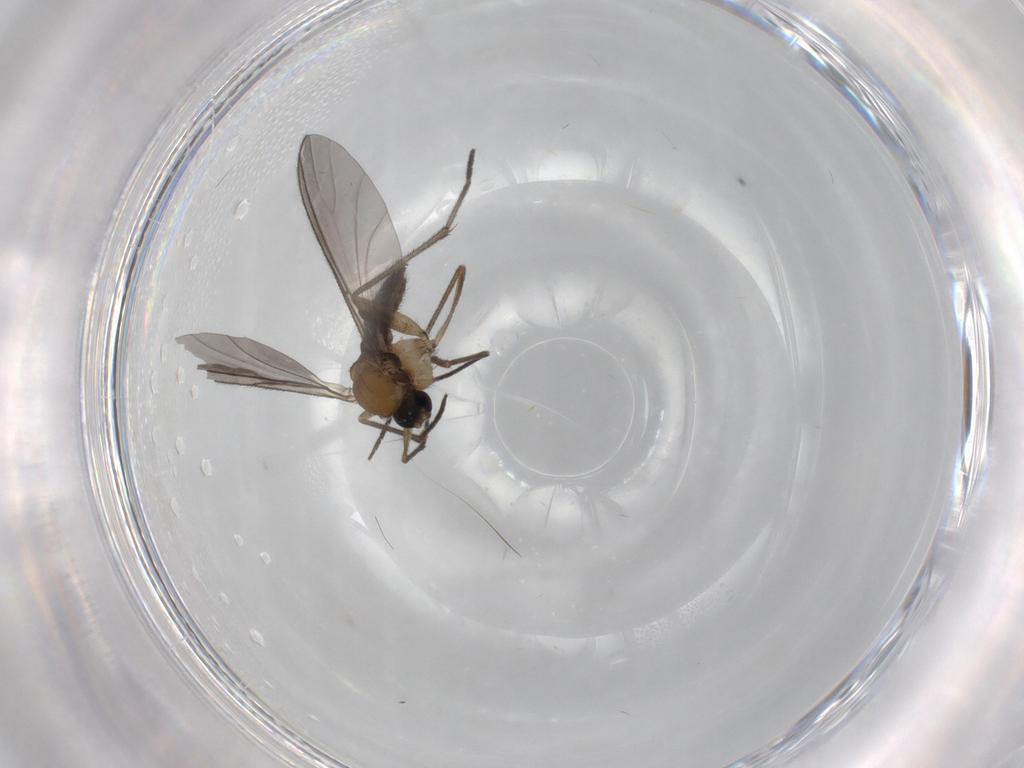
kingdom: Animalia
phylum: Arthropoda
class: Insecta
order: Diptera
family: Sciaridae
